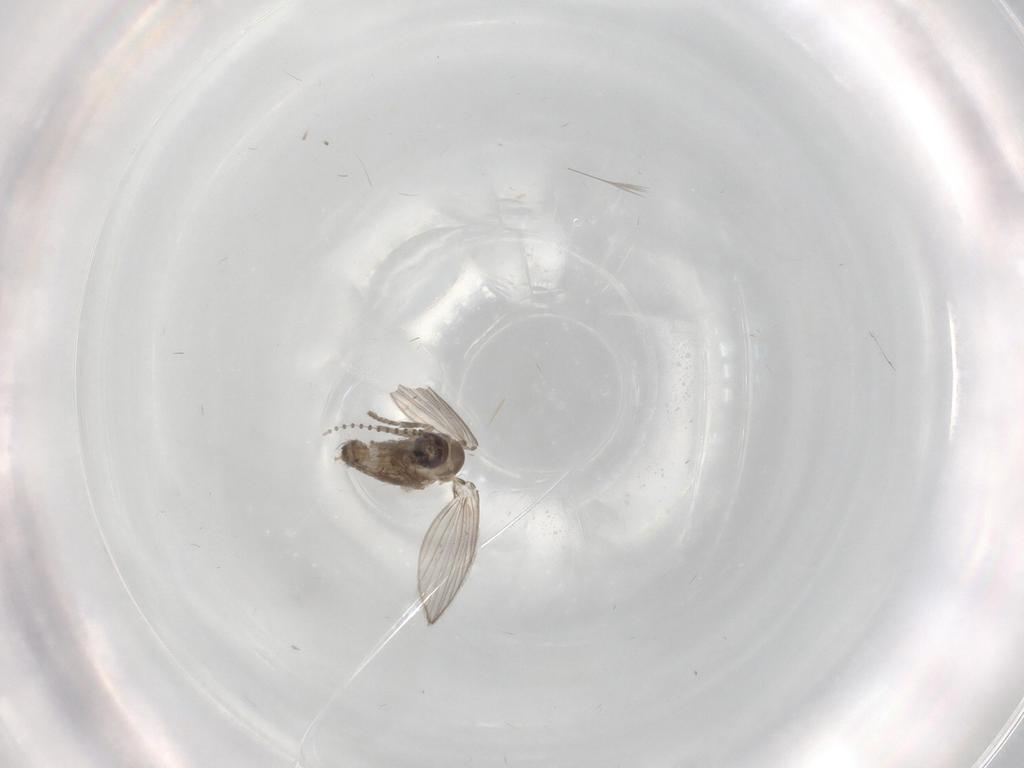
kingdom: Animalia
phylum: Arthropoda
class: Insecta
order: Diptera
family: Psychodidae
